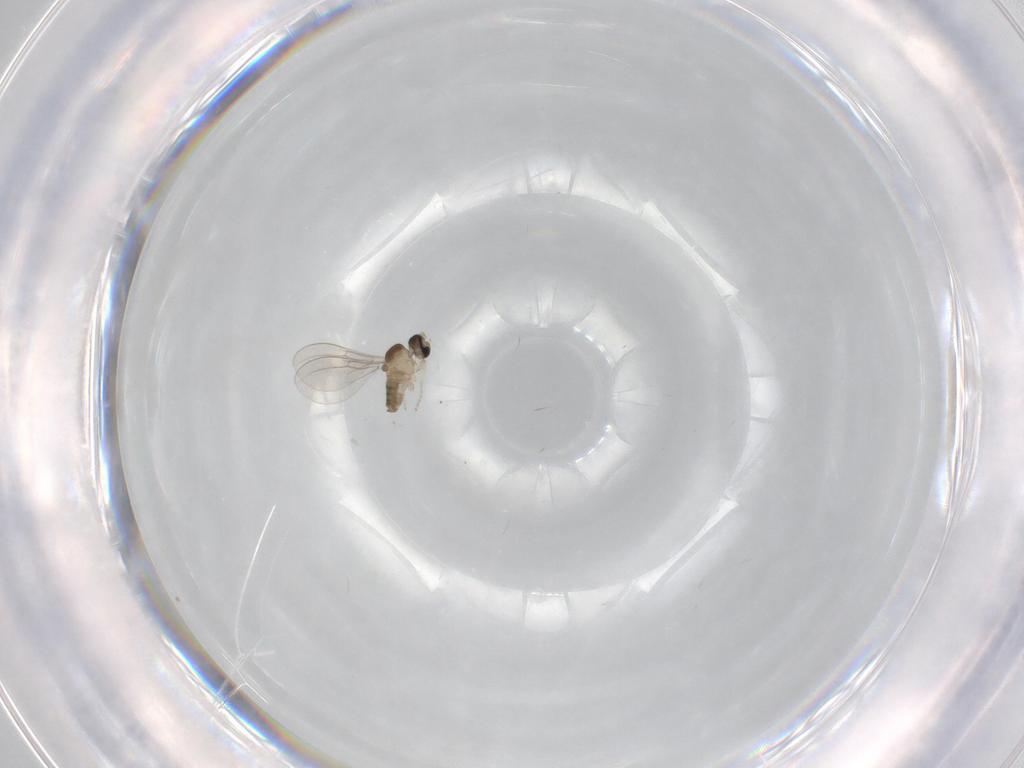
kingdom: Animalia
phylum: Arthropoda
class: Insecta
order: Diptera
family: Cecidomyiidae
